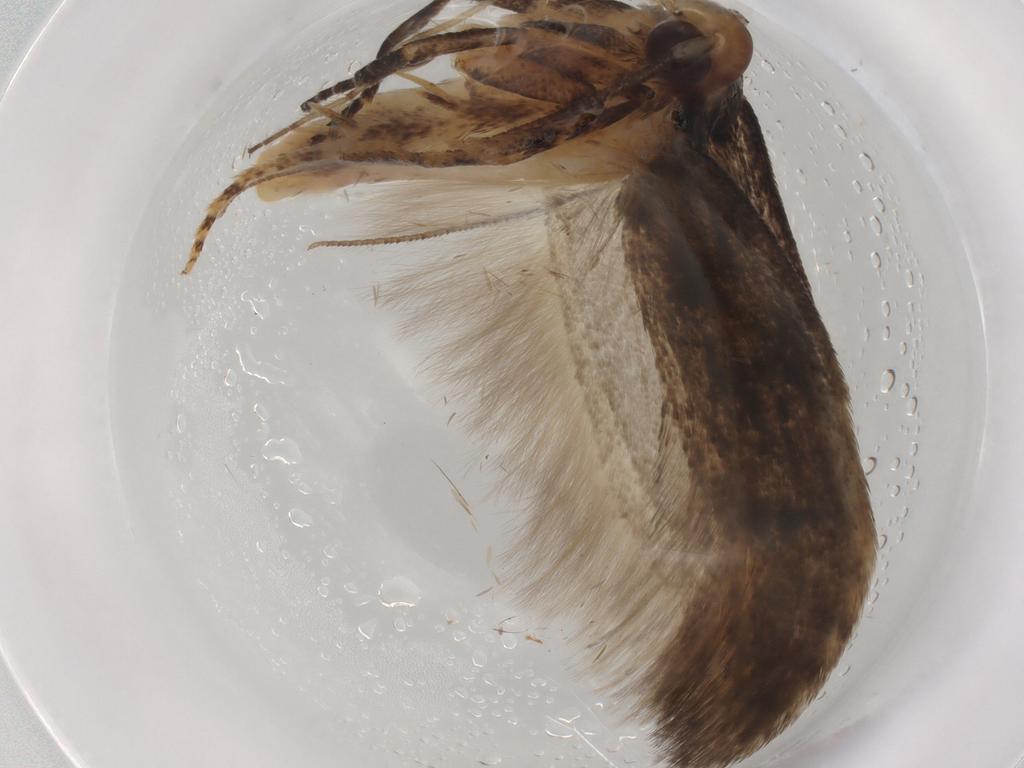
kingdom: Animalia
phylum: Arthropoda
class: Insecta
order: Lepidoptera
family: Gelechiidae
